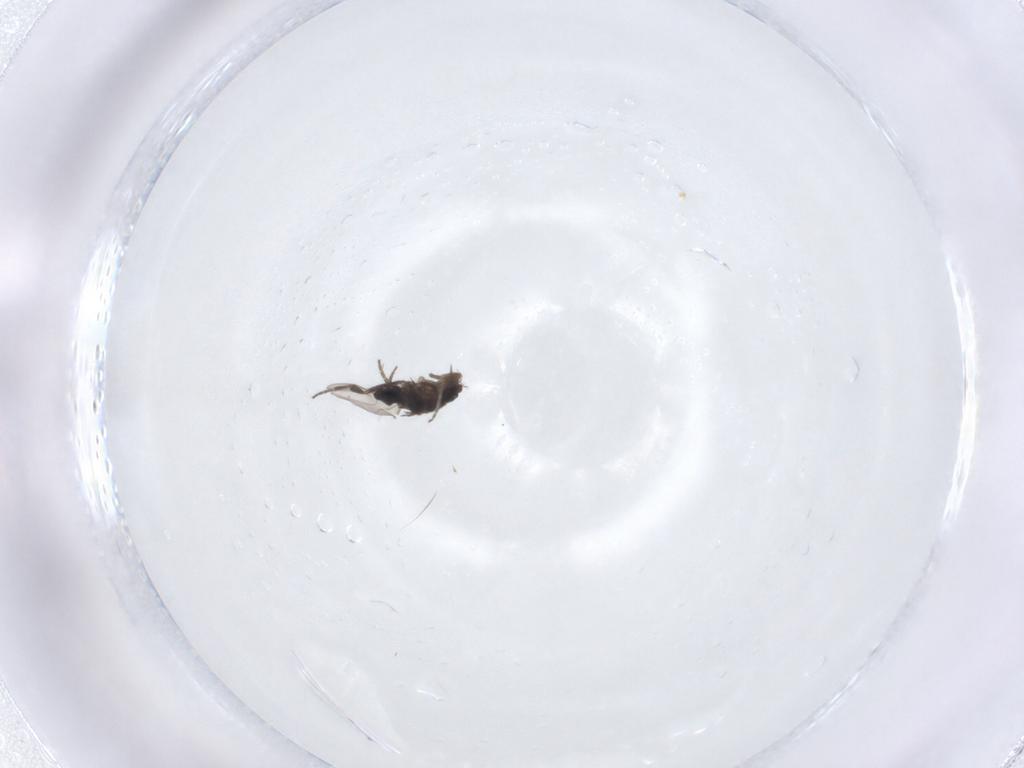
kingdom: Animalia
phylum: Arthropoda
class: Insecta
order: Diptera
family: Phoridae
